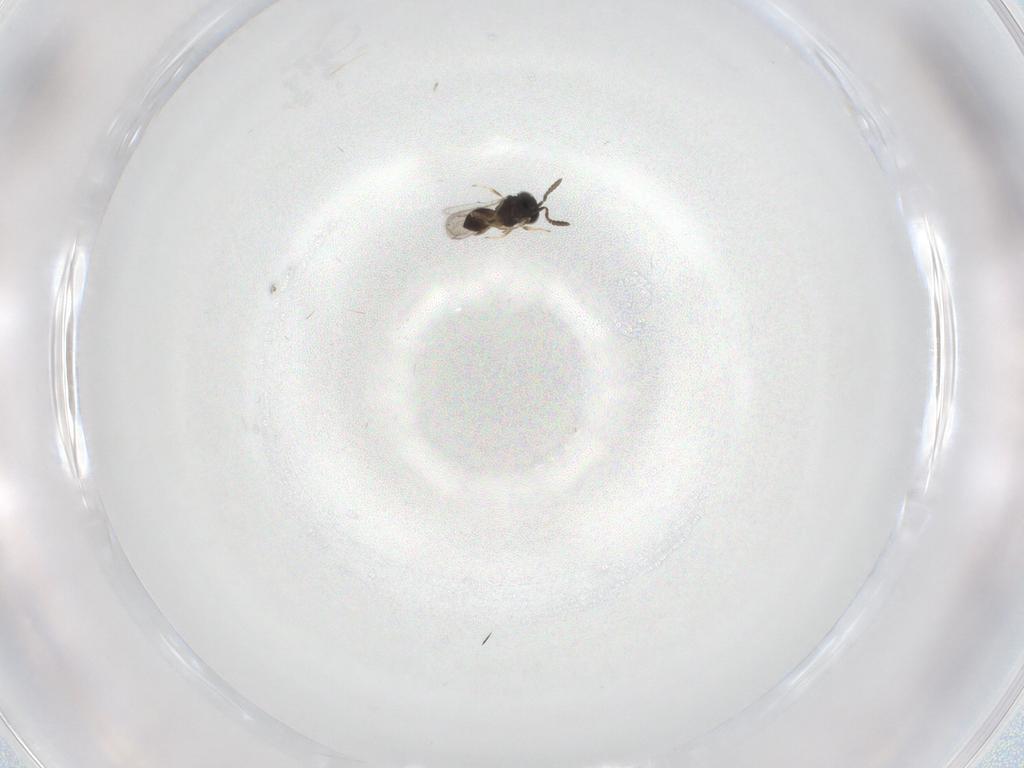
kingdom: Animalia
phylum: Arthropoda
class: Insecta
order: Hymenoptera
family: Scelionidae
